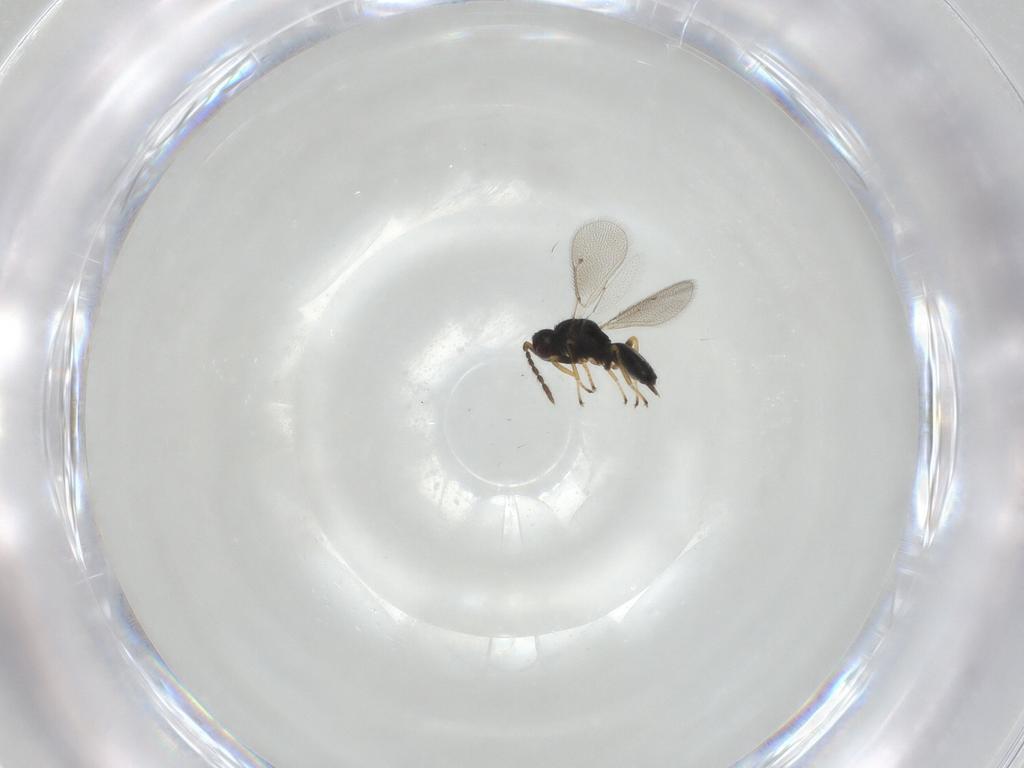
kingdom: Animalia
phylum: Arthropoda
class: Insecta
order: Hymenoptera
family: Eulophidae
